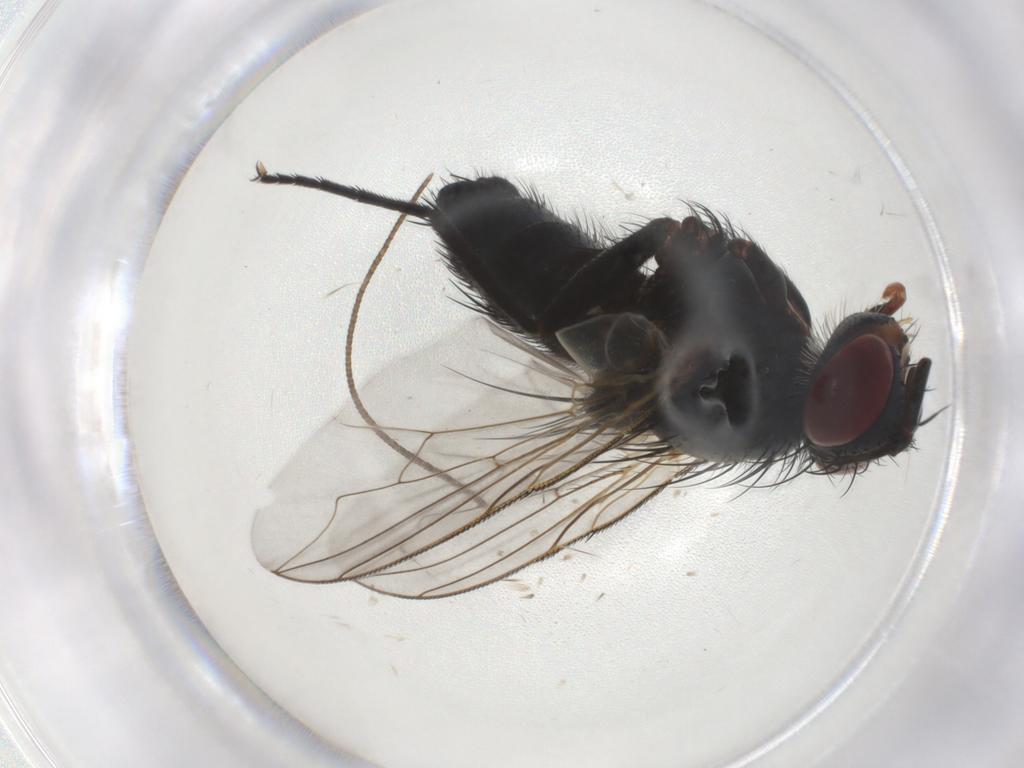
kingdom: Animalia
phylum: Arthropoda
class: Insecta
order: Diptera
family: Tachinidae
